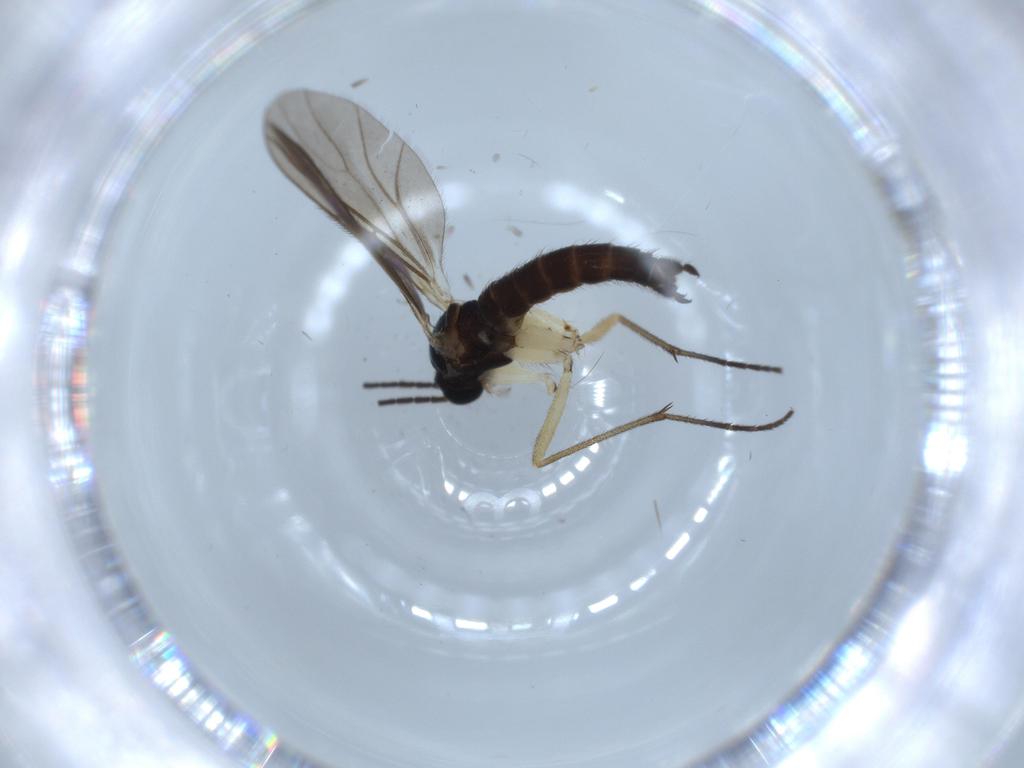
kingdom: Animalia
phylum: Arthropoda
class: Insecta
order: Diptera
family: Sciaridae
